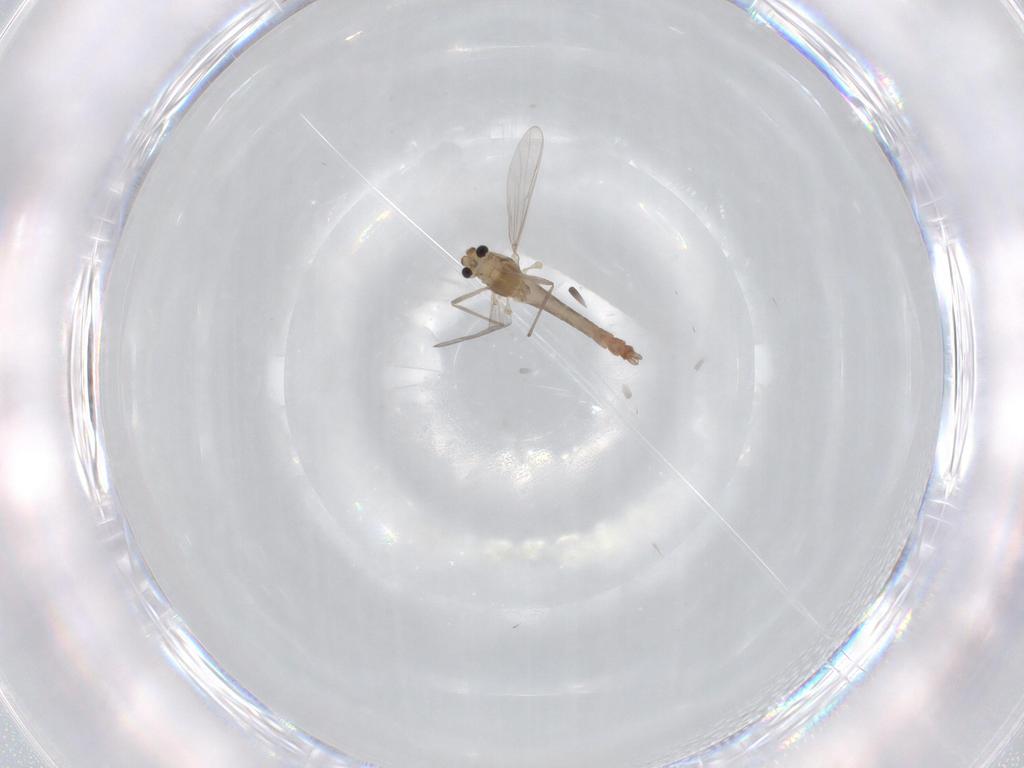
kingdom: Animalia
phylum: Arthropoda
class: Insecta
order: Diptera
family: Chironomidae
